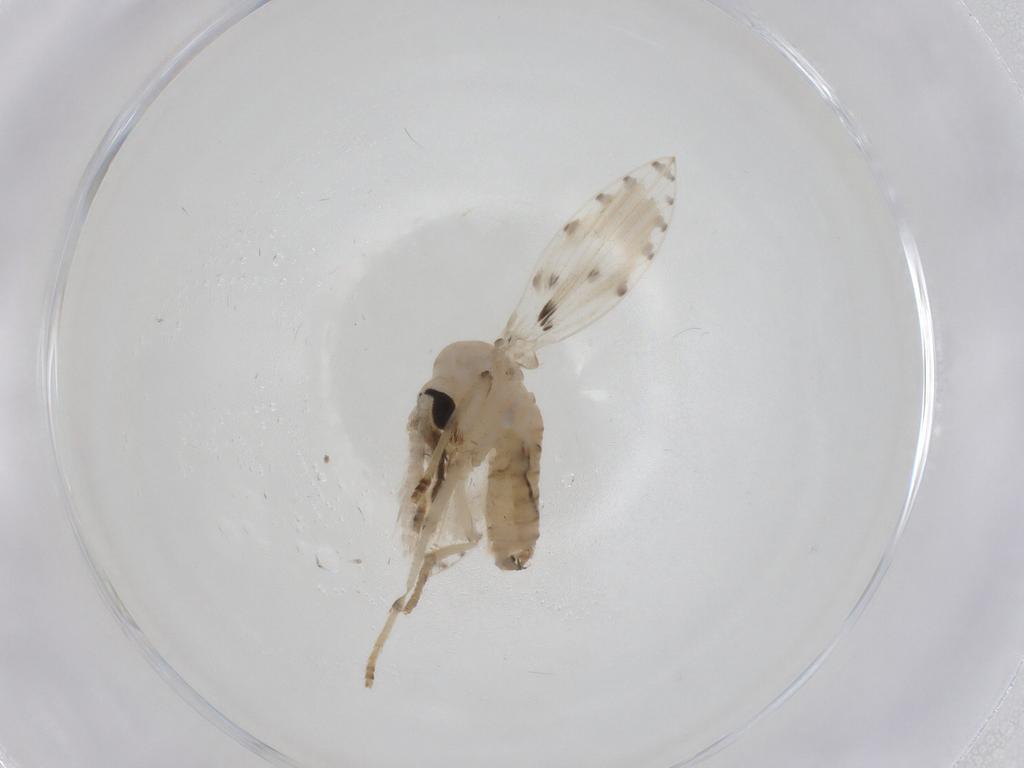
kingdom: Animalia
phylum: Arthropoda
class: Insecta
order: Diptera
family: Psychodidae
